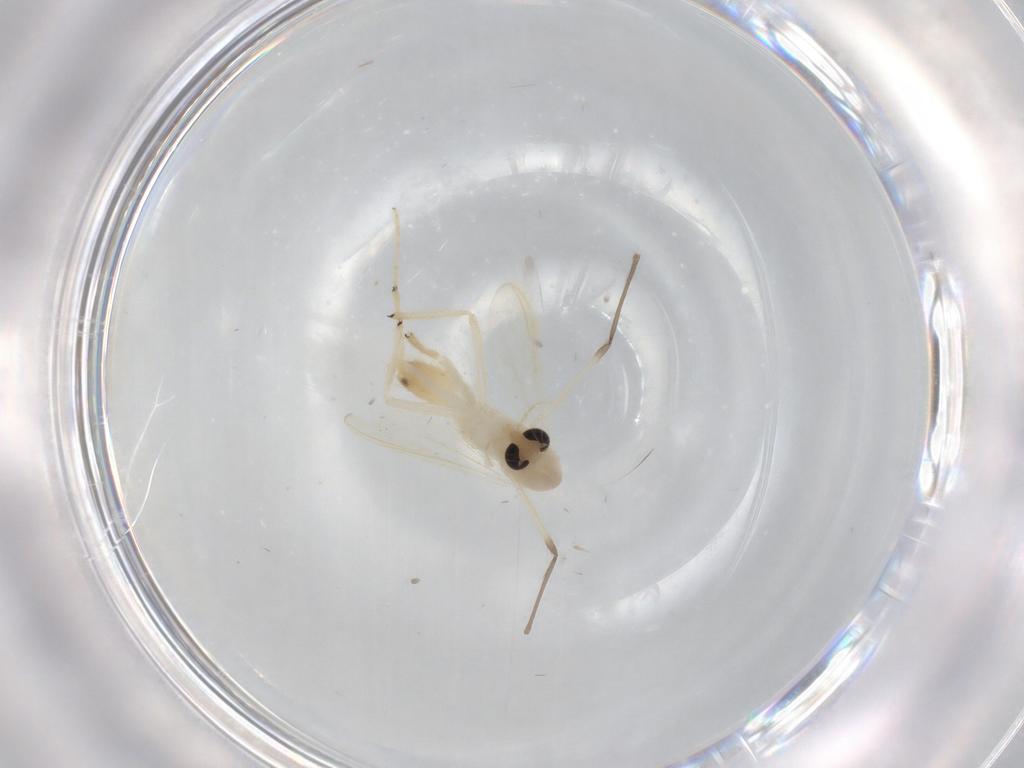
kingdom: Animalia
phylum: Arthropoda
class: Insecta
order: Diptera
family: Chironomidae
